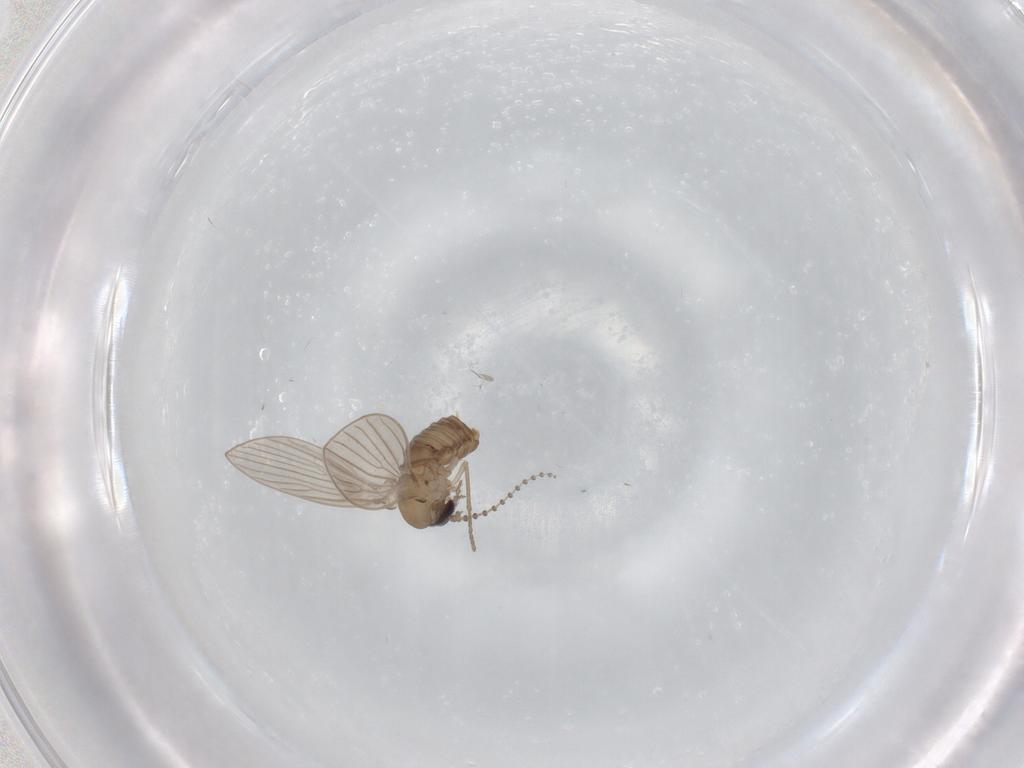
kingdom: Animalia
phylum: Arthropoda
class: Insecta
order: Diptera
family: Psychodidae
